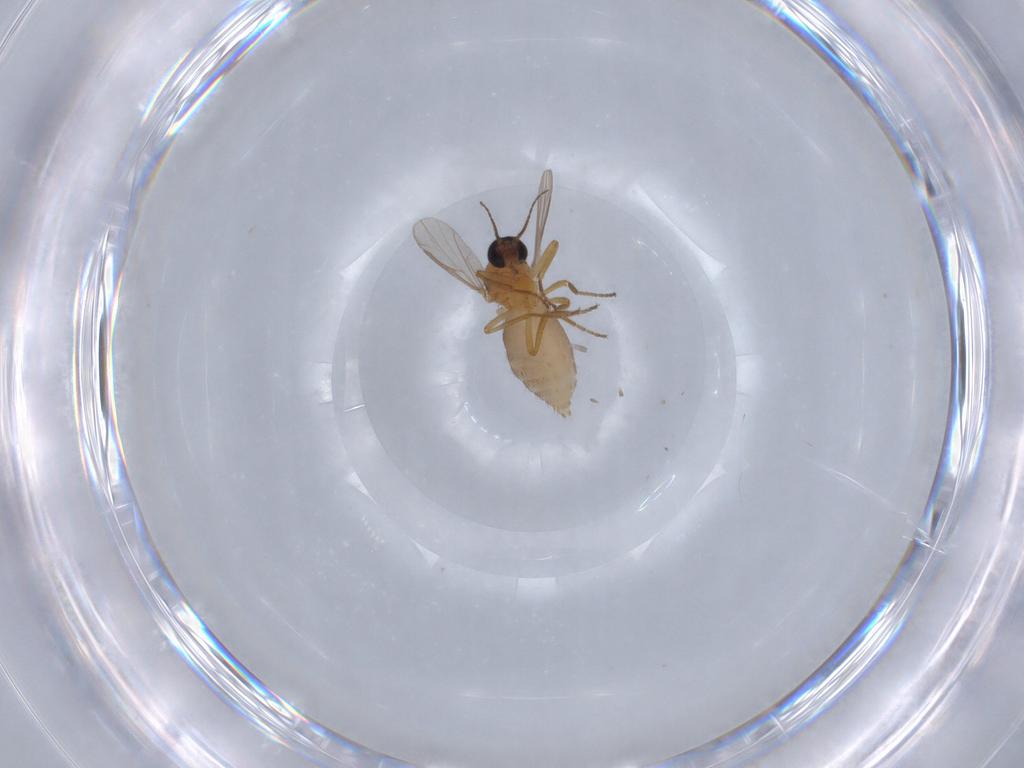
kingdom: Animalia
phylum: Arthropoda
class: Insecta
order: Diptera
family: Ceratopogonidae
